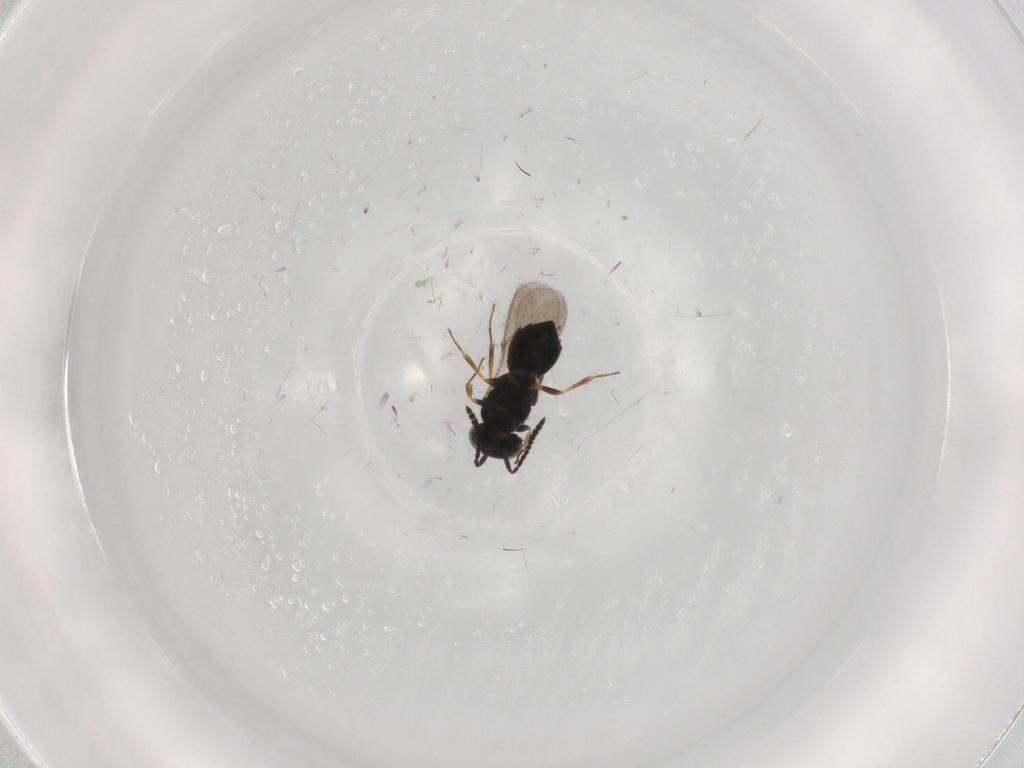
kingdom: Animalia
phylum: Arthropoda
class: Insecta
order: Hymenoptera
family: Scelionidae
